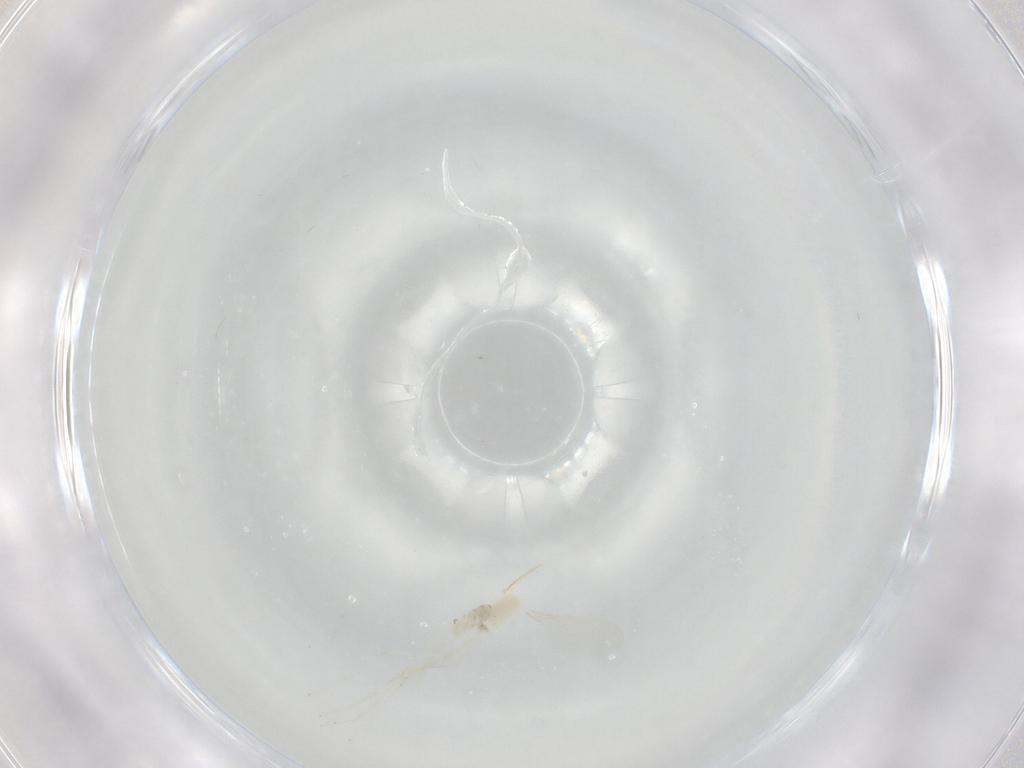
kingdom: Animalia
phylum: Arthropoda
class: Insecta
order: Diptera
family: Cecidomyiidae
